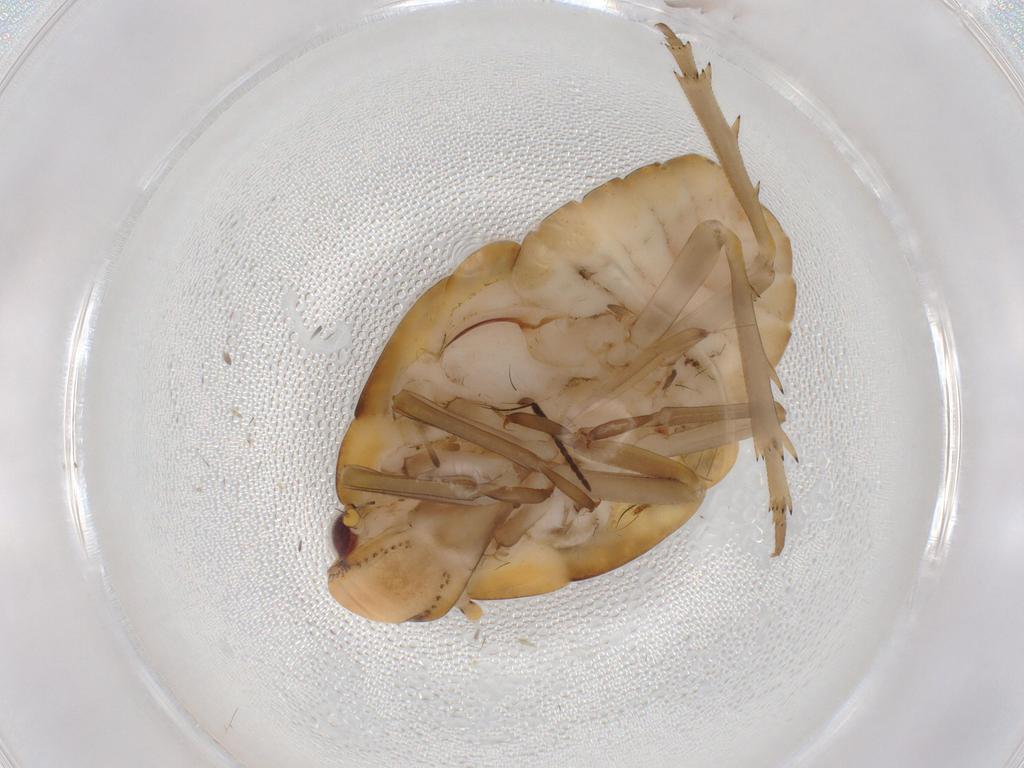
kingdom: Animalia
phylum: Arthropoda
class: Insecta
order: Hemiptera
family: Flatidae
